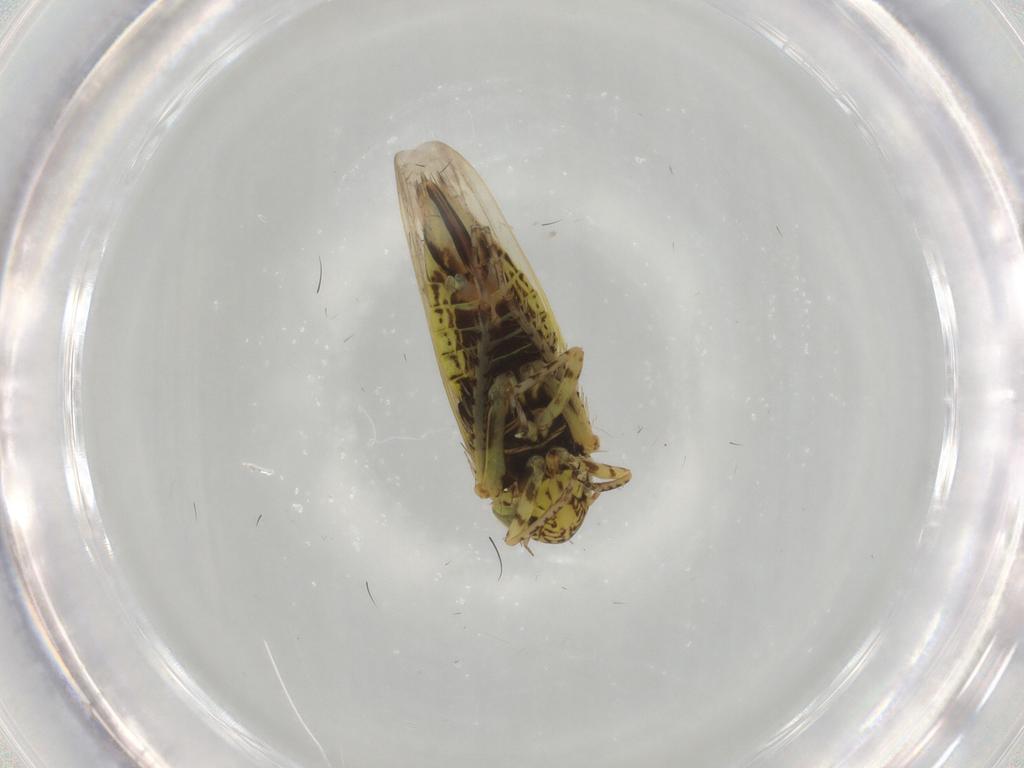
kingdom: Animalia
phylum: Arthropoda
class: Insecta
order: Hemiptera
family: Cicadellidae
